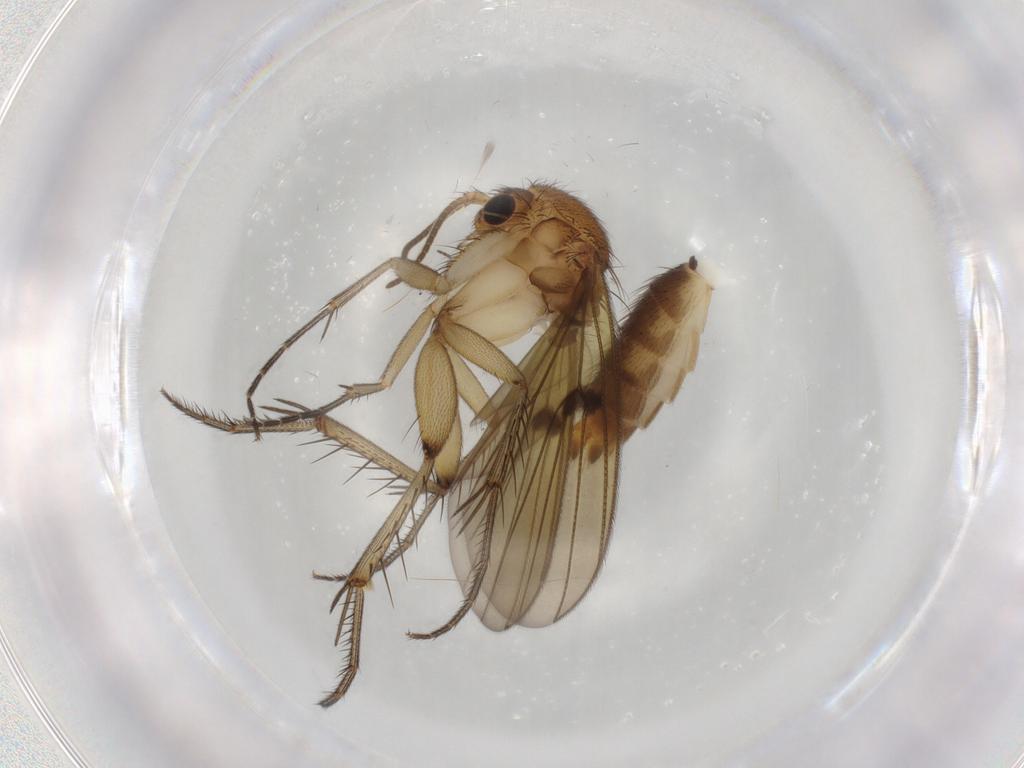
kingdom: Animalia
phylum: Arthropoda
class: Insecta
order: Diptera
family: Mycetophilidae
